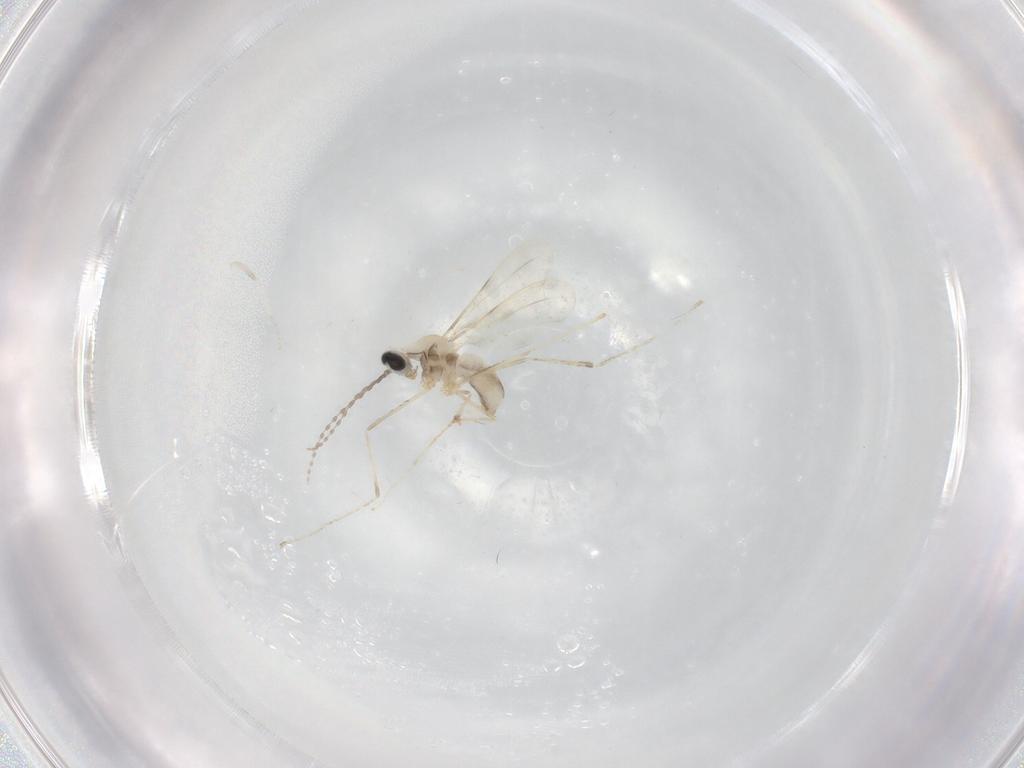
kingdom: Animalia
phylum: Arthropoda
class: Insecta
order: Diptera
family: Cecidomyiidae
